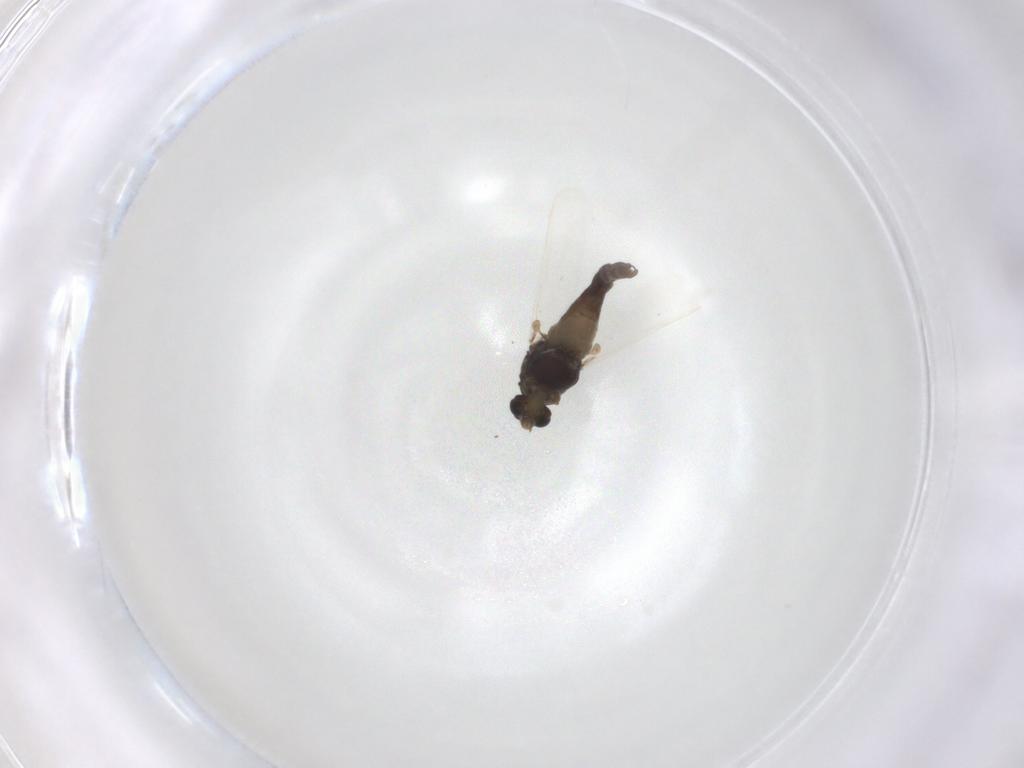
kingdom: Animalia
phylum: Arthropoda
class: Insecta
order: Diptera
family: Chironomidae
